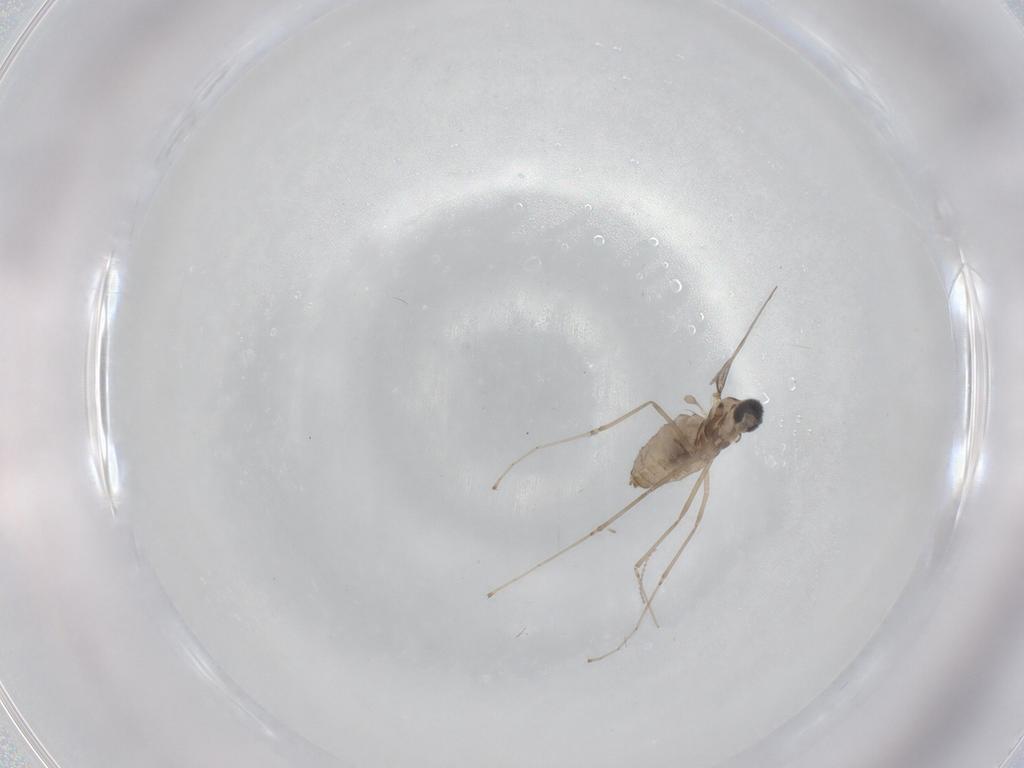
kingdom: Animalia
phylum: Arthropoda
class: Insecta
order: Diptera
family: Cecidomyiidae
